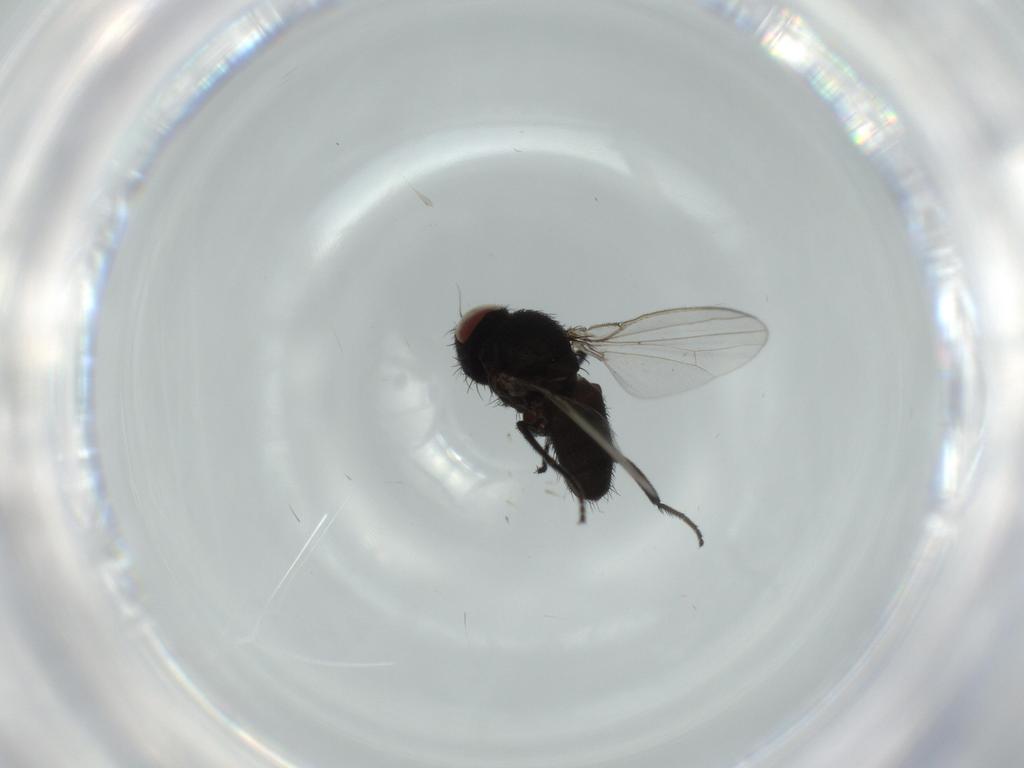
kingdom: Animalia
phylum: Arthropoda
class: Insecta
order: Diptera
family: Milichiidae
